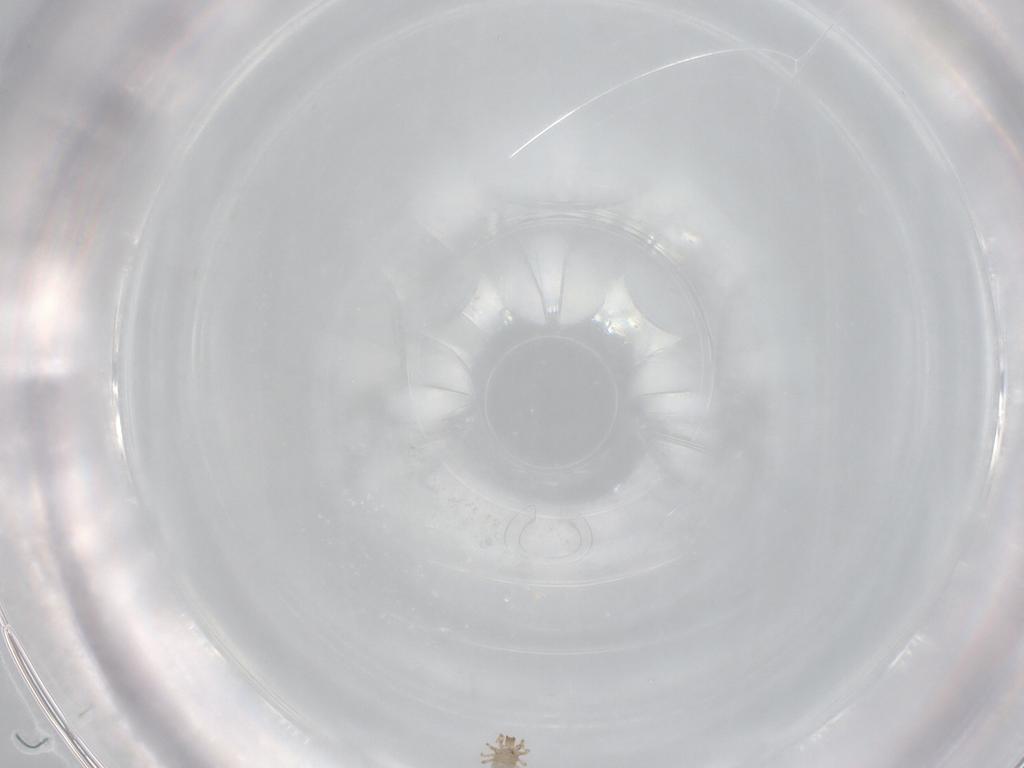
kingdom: Animalia
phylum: Arthropoda
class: Arachnida
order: Mesostigmata
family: Ascidae
